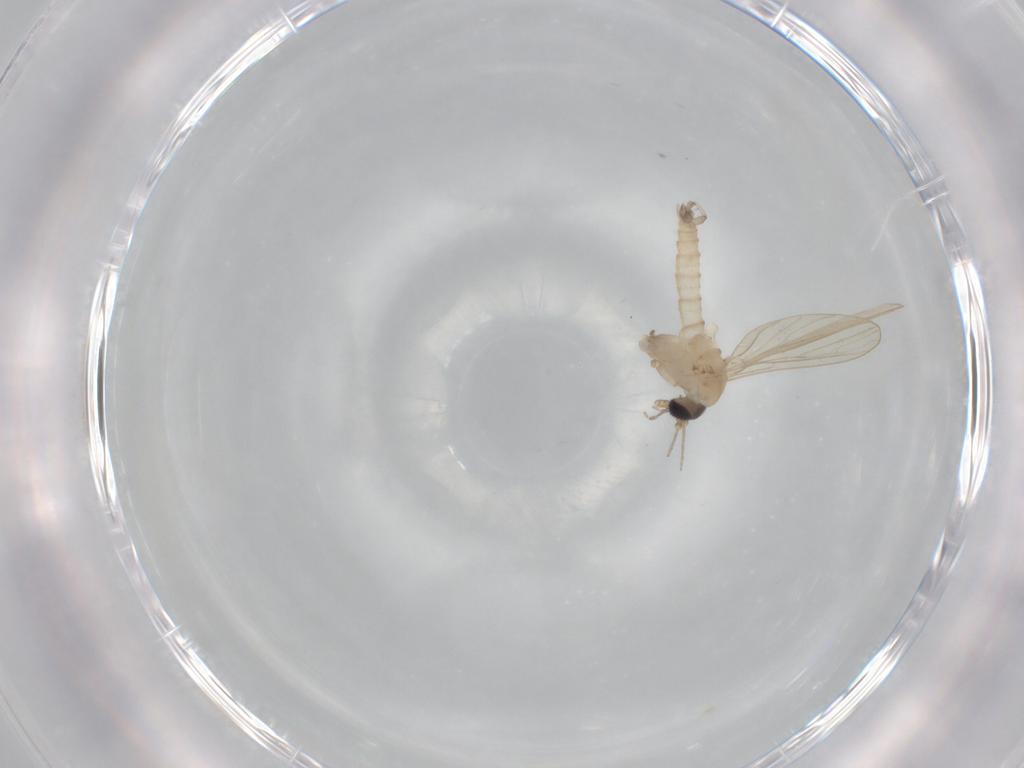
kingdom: Animalia
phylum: Arthropoda
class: Insecta
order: Diptera
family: Psychodidae
